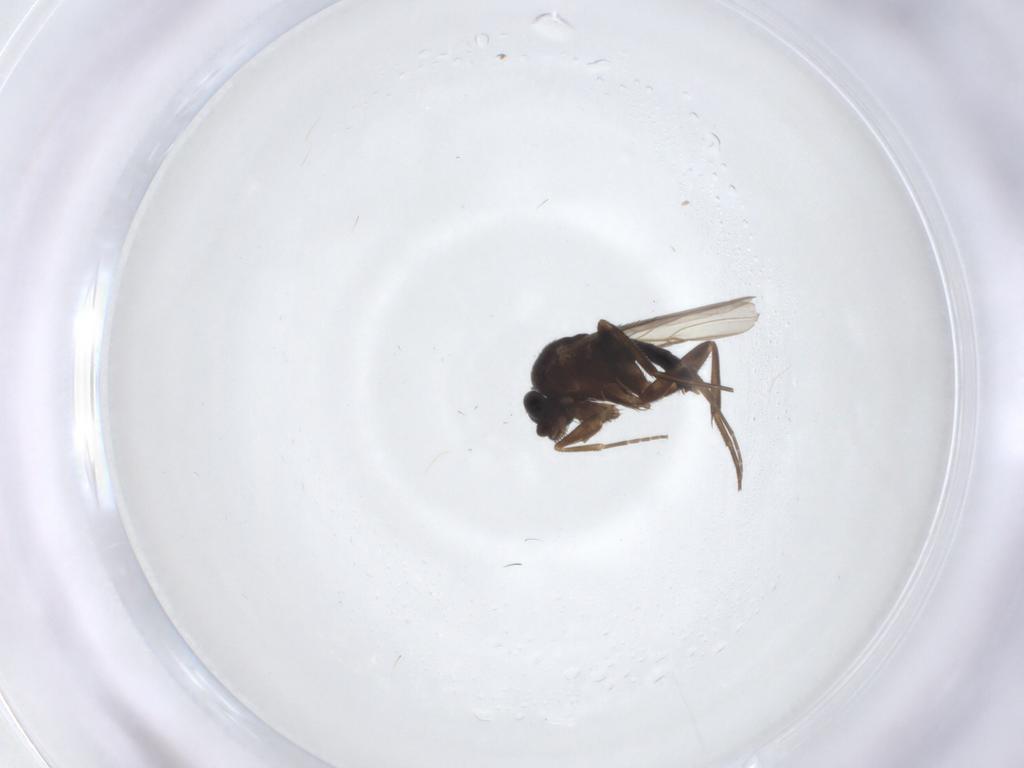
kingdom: Animalia
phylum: Arthropoda
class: Insecta
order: Diptera
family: Phoridae
